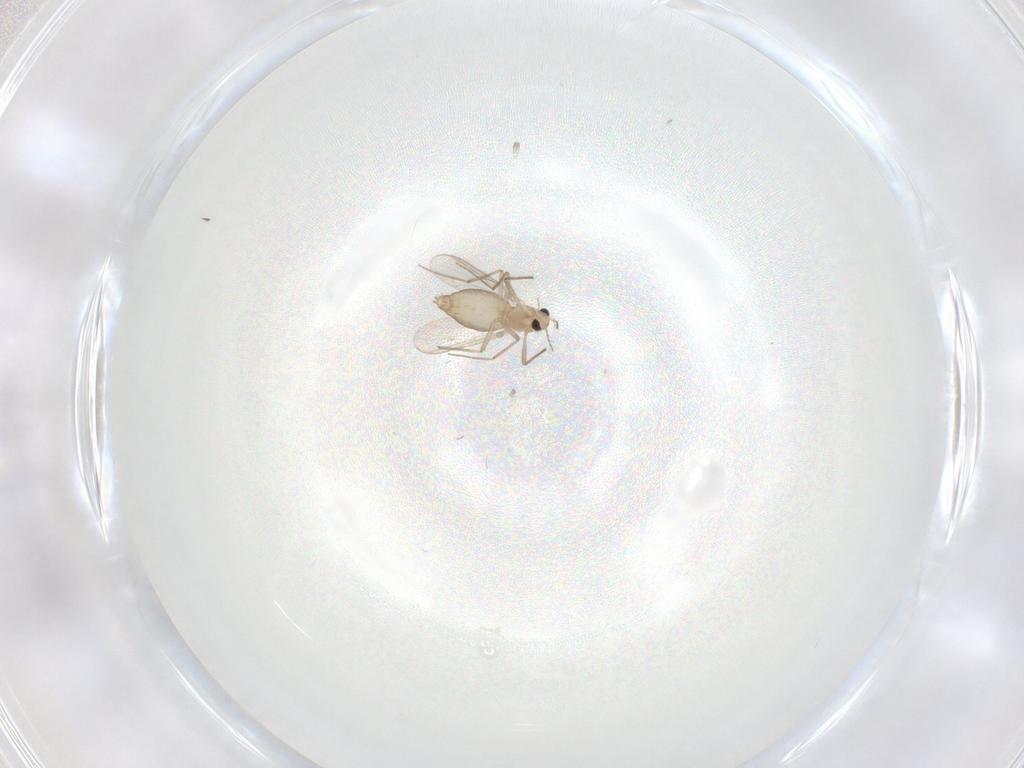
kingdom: Animalia
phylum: Arthropoda
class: Insecta
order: Diptera
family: Chironomidae
